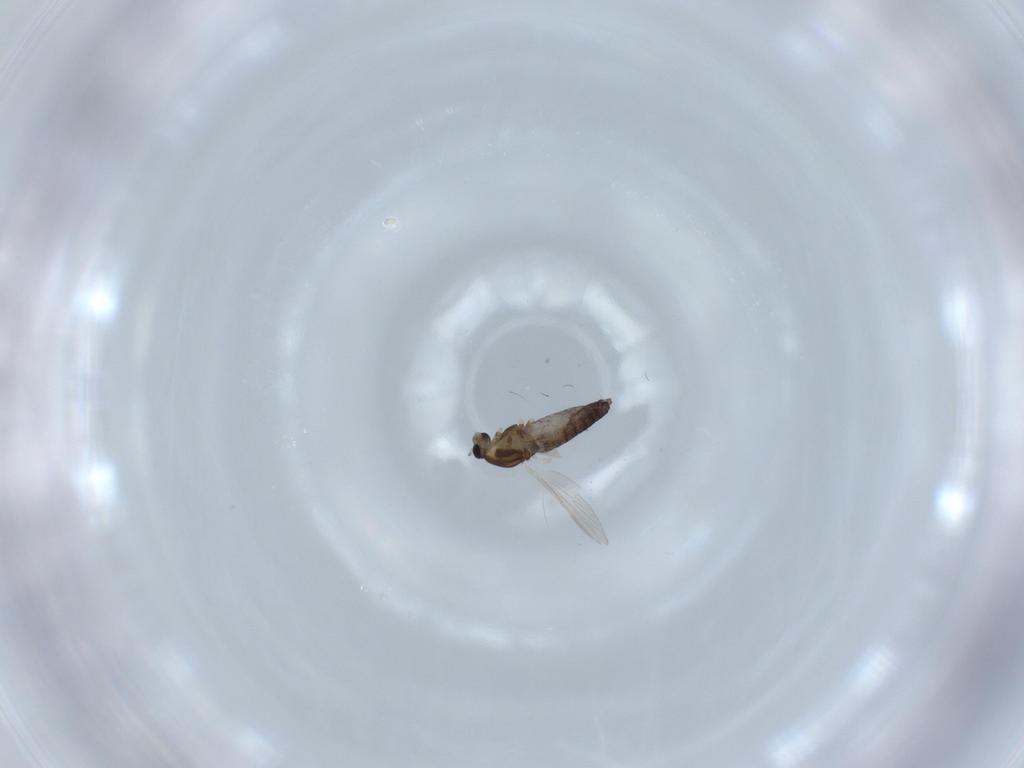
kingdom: Animalia
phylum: Arthropoda
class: Insecta
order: Diptera
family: Chironomidae
